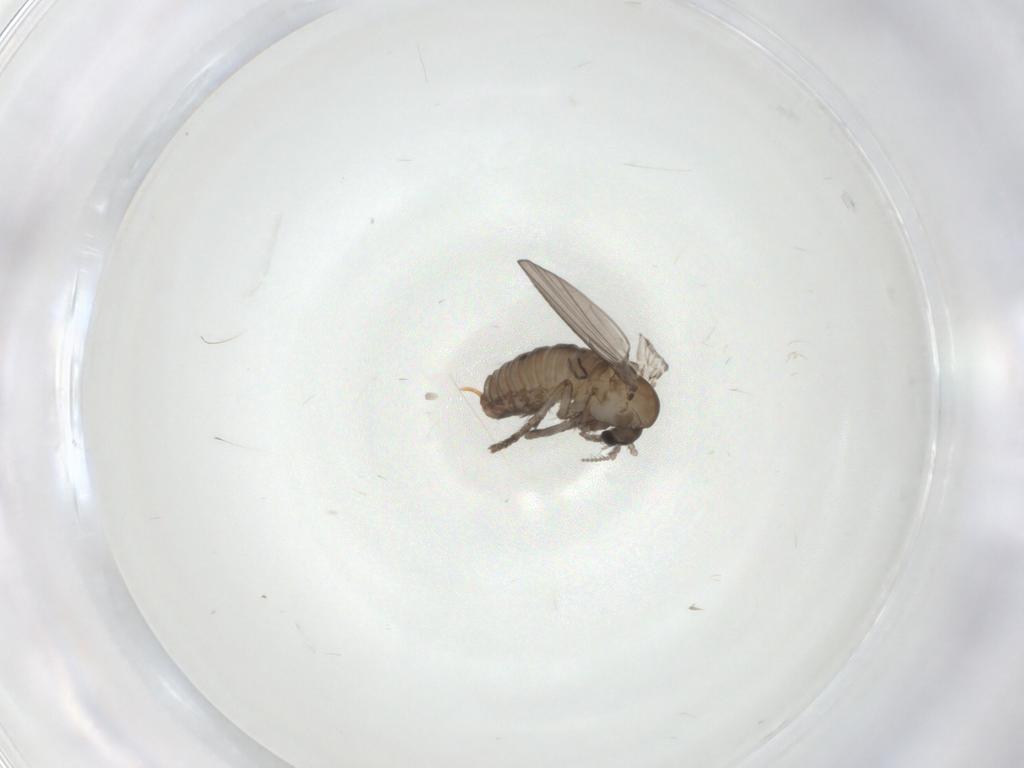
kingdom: Animalia
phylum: Arthropoda
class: Insecta
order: Diptera
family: Psychodidae
